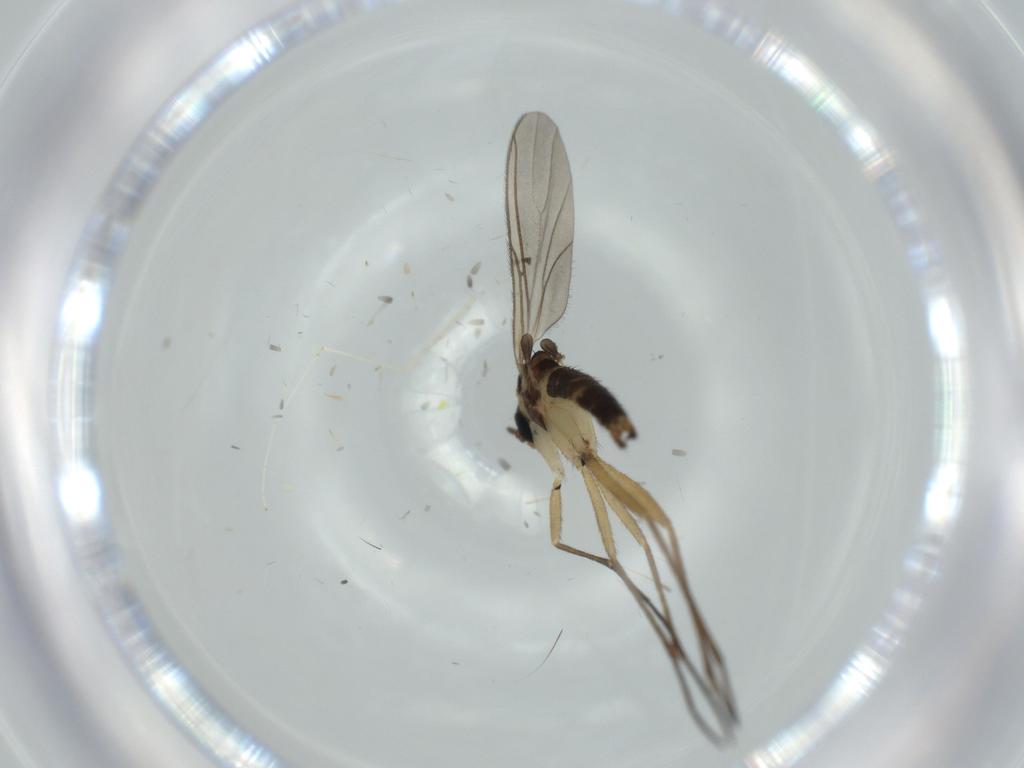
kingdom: Animalia
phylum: Arthropoda
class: Insecta
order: Diptera
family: Cecidomyiidae
